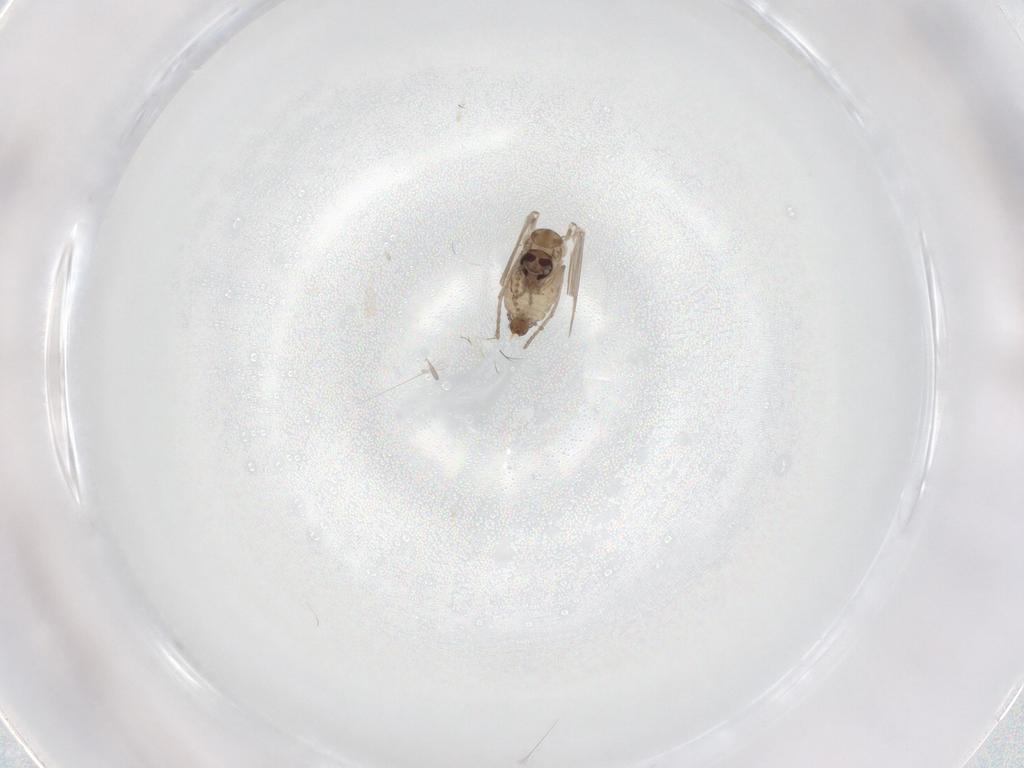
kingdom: Animalia
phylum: Arthropoda
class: Insecta
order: Diptera
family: Psychodidae
